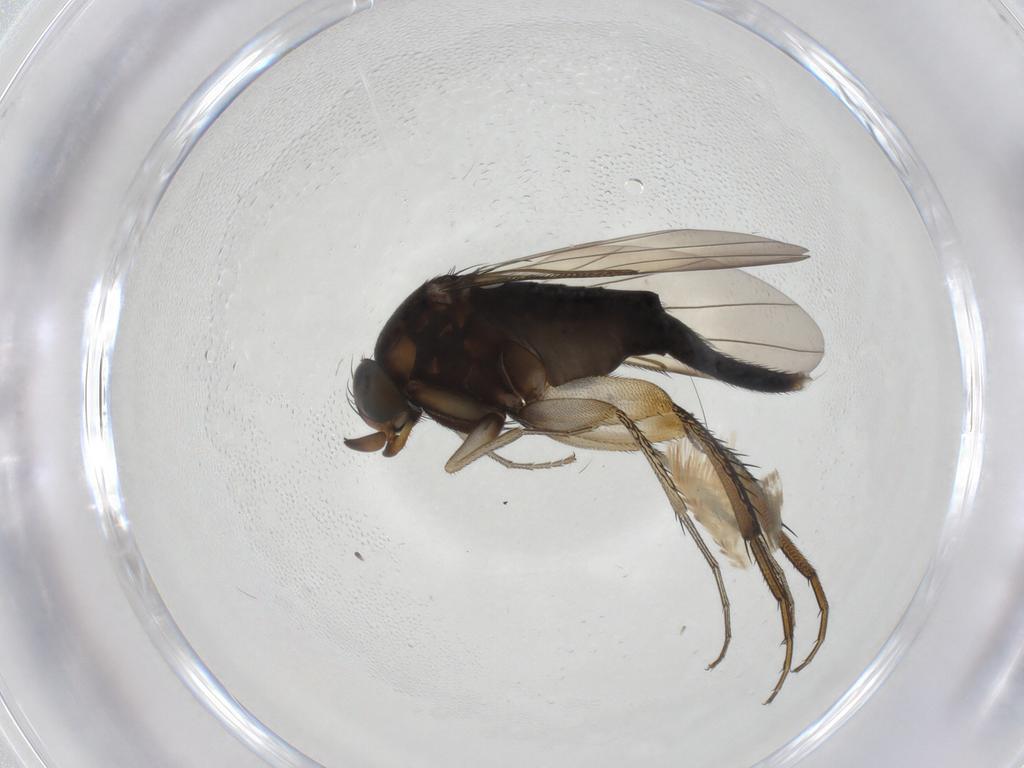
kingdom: Animalia
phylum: Arthropoda
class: Insecta
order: Diptera
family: Phoridae
